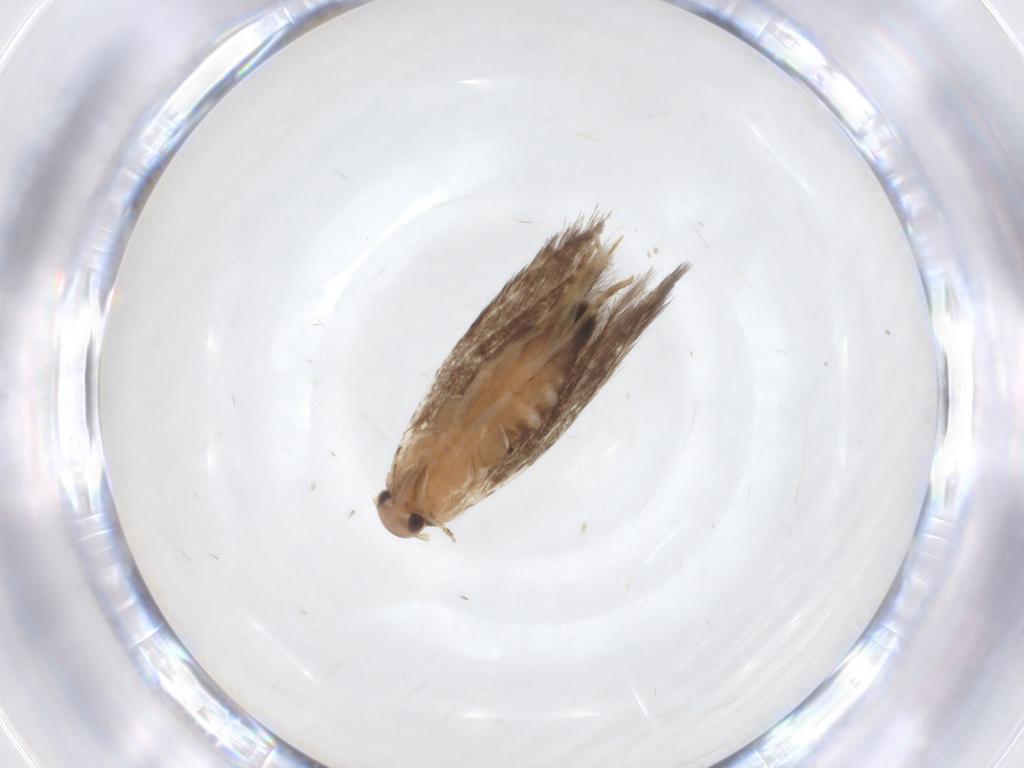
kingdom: Animalia
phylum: Arthropoda
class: Insecta
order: Lepidoptera
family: Elachistidae
